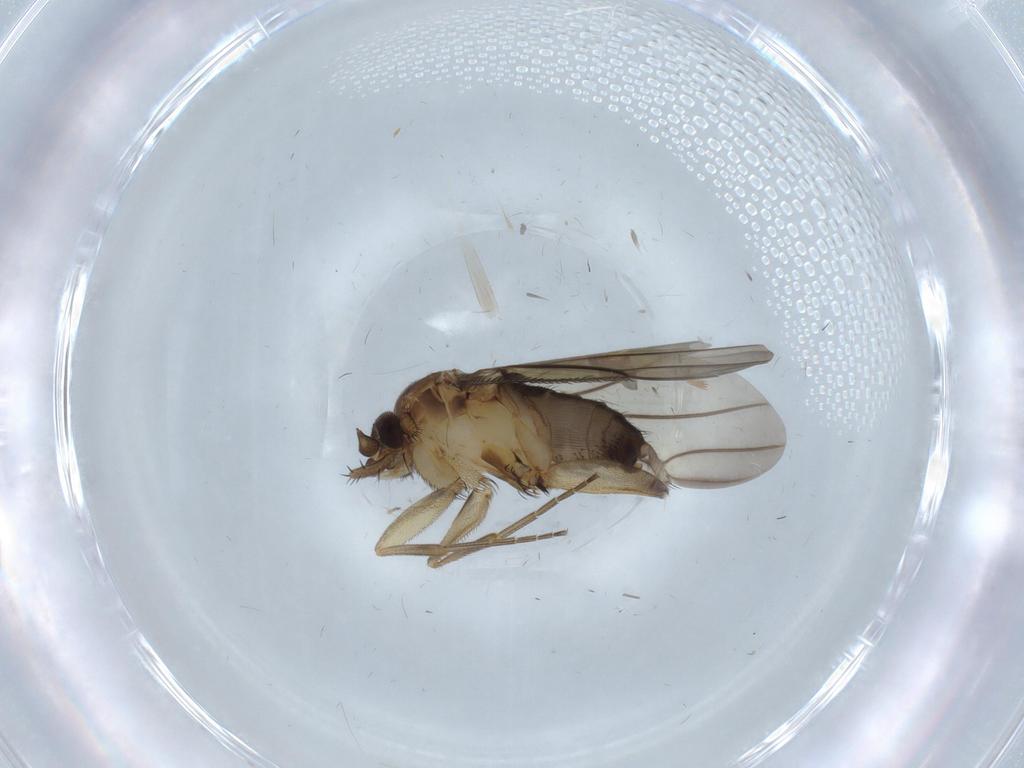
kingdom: Animalia
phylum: Arthropoda
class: Insecta
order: Diptera
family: Phoridae
